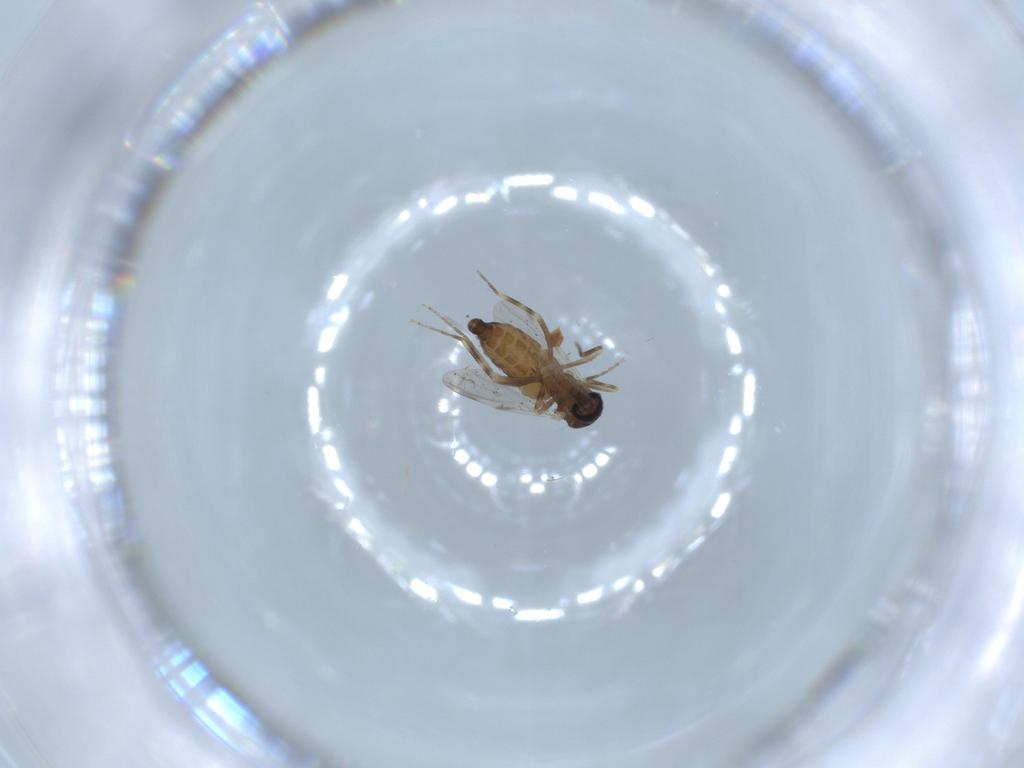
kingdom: Animalia
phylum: Arthropoda
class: Insecta
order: Diptera
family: Ceratopogonidae
